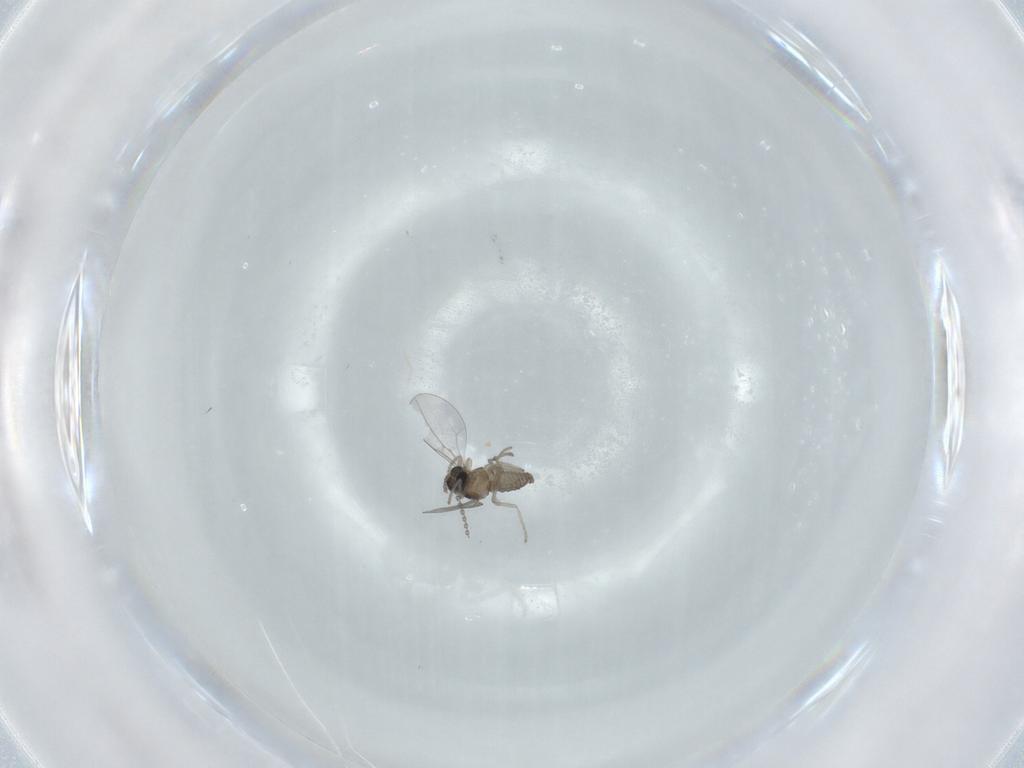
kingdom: Animalia
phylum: Arthropoda
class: Insecta
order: Diptera
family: Cecidomyiidae
